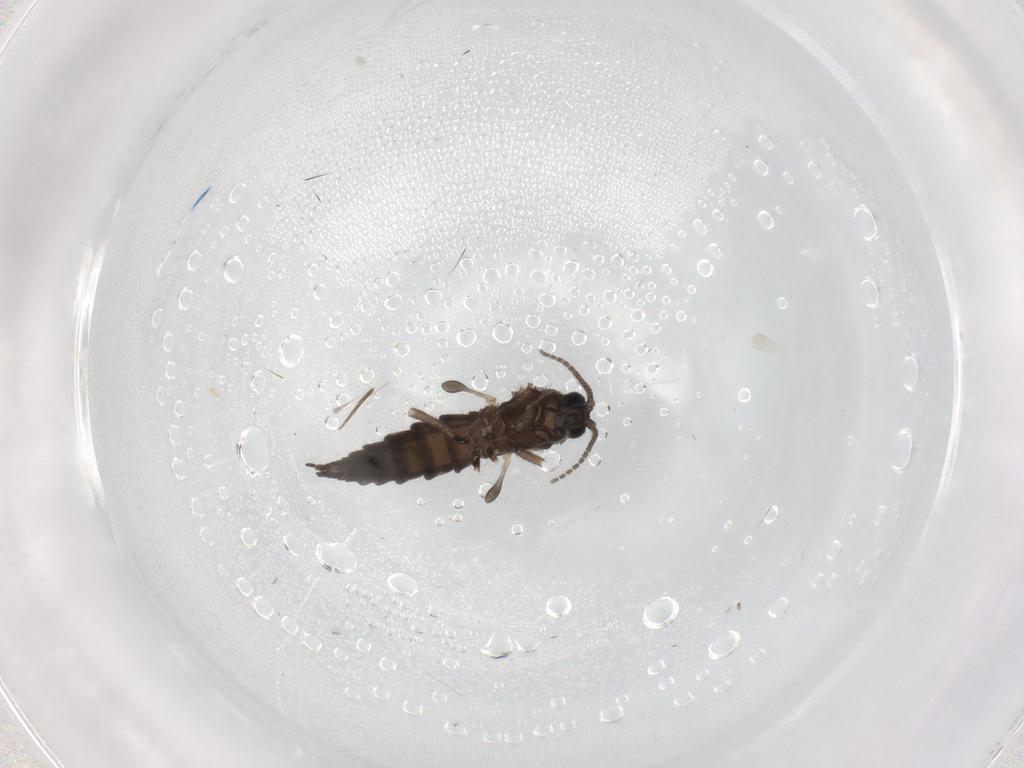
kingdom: Animalia
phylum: Arthropoda
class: Insecta
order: Diptera
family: Sciaridae
